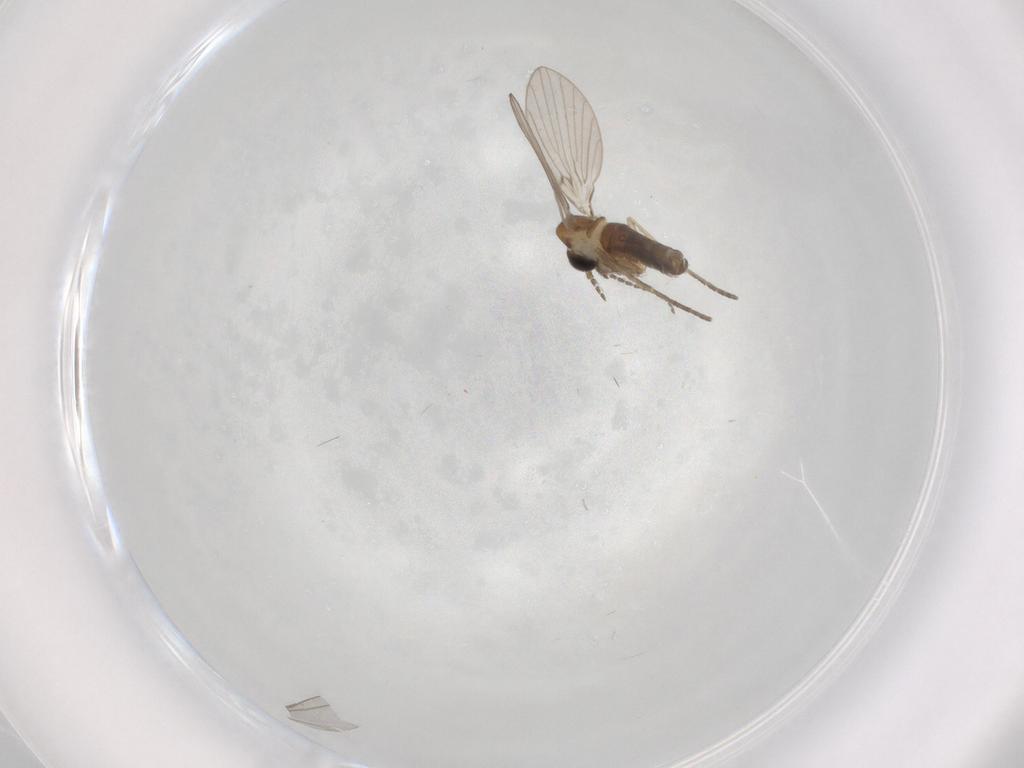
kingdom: Animalia
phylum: Arthropoda
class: Insecta
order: Diptera
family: Psychodidae
